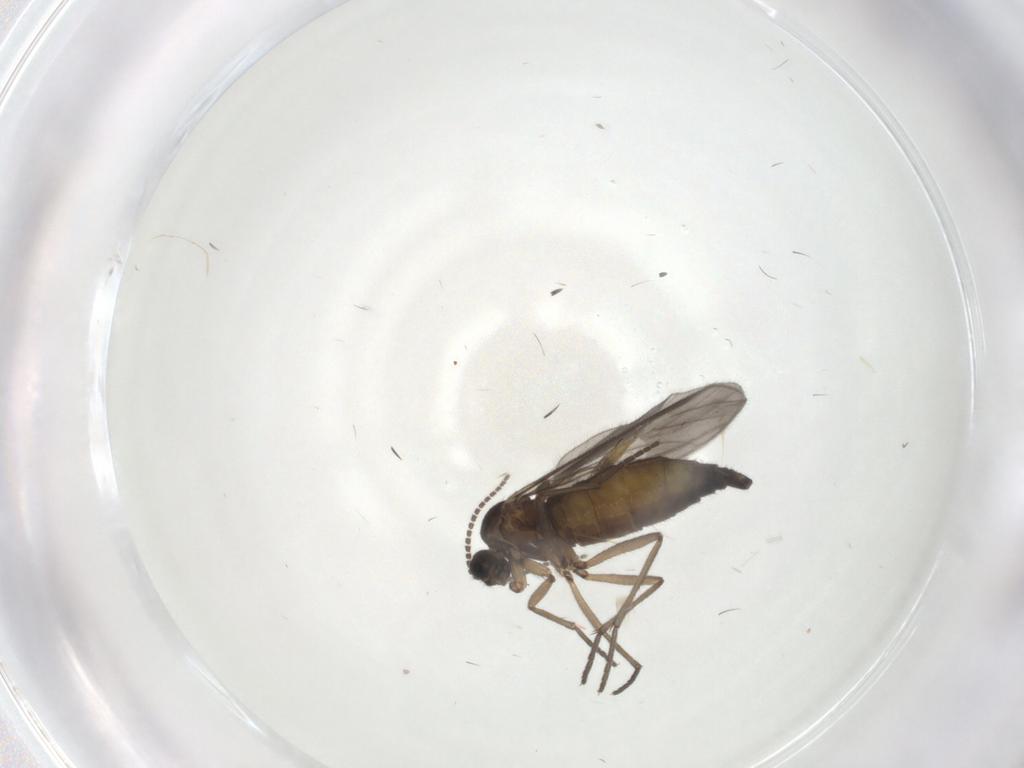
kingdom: Animalia
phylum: Arthropoda
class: Insecta
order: Diptera
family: Sciaridae
